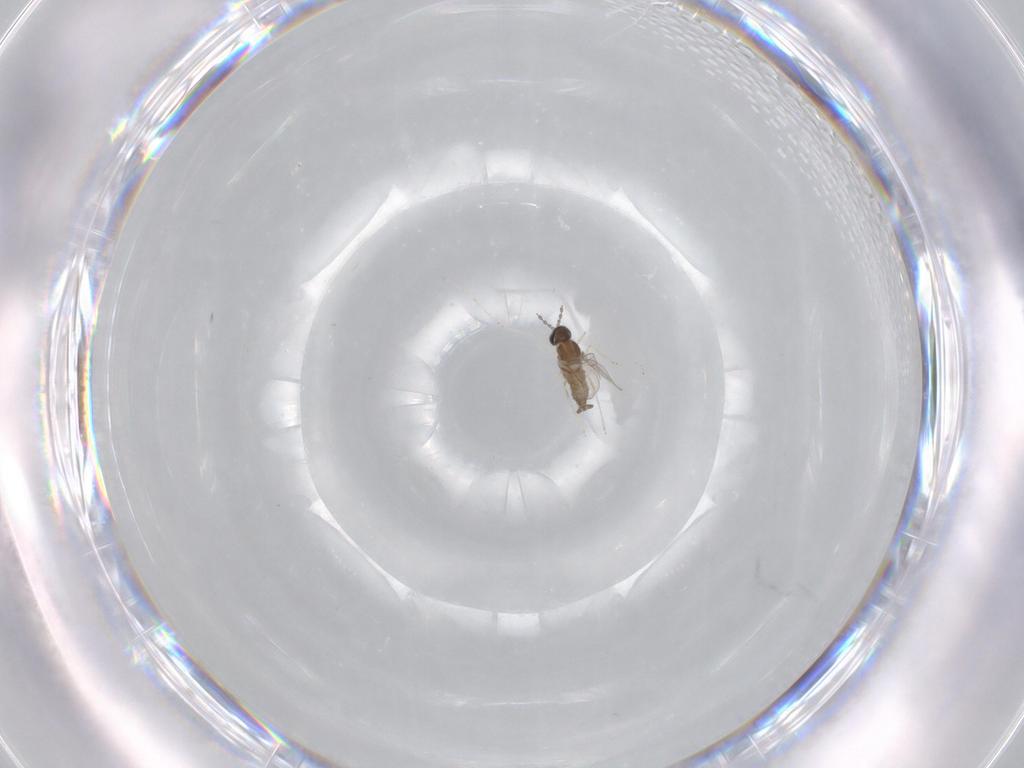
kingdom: Animalia
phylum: Arthropoda
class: Insecta
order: Diptera
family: Cecidomyiidae
